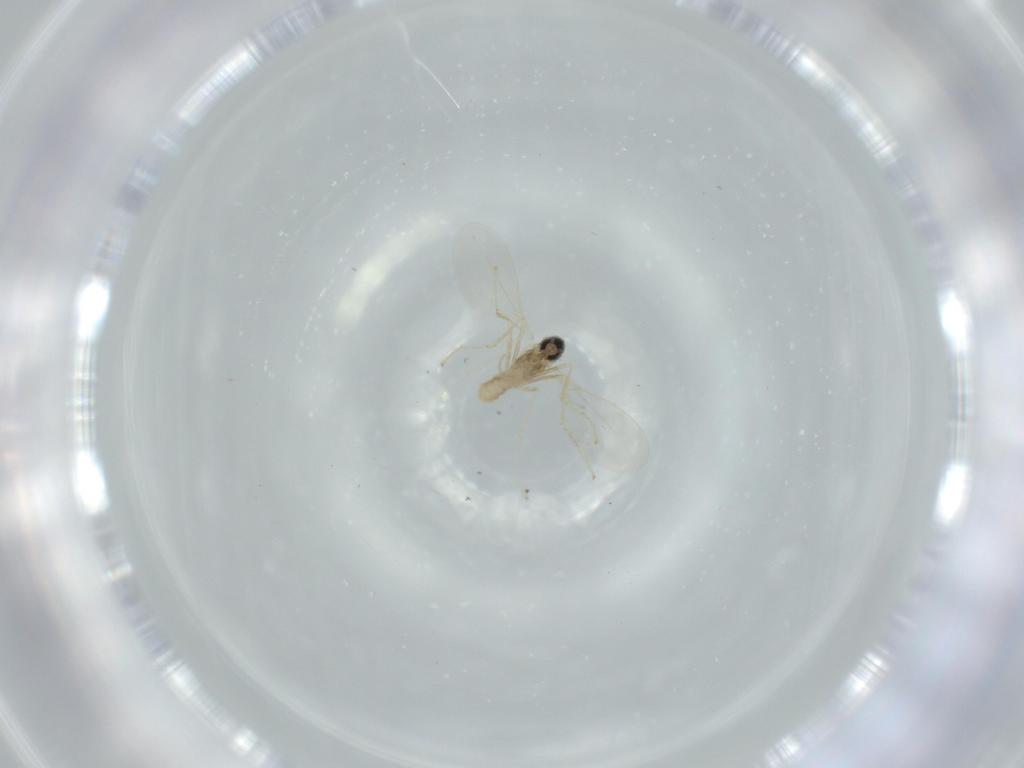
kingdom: Animalia
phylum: Arthropoda
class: Insecta
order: Diptera
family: Cecidomyiidae
